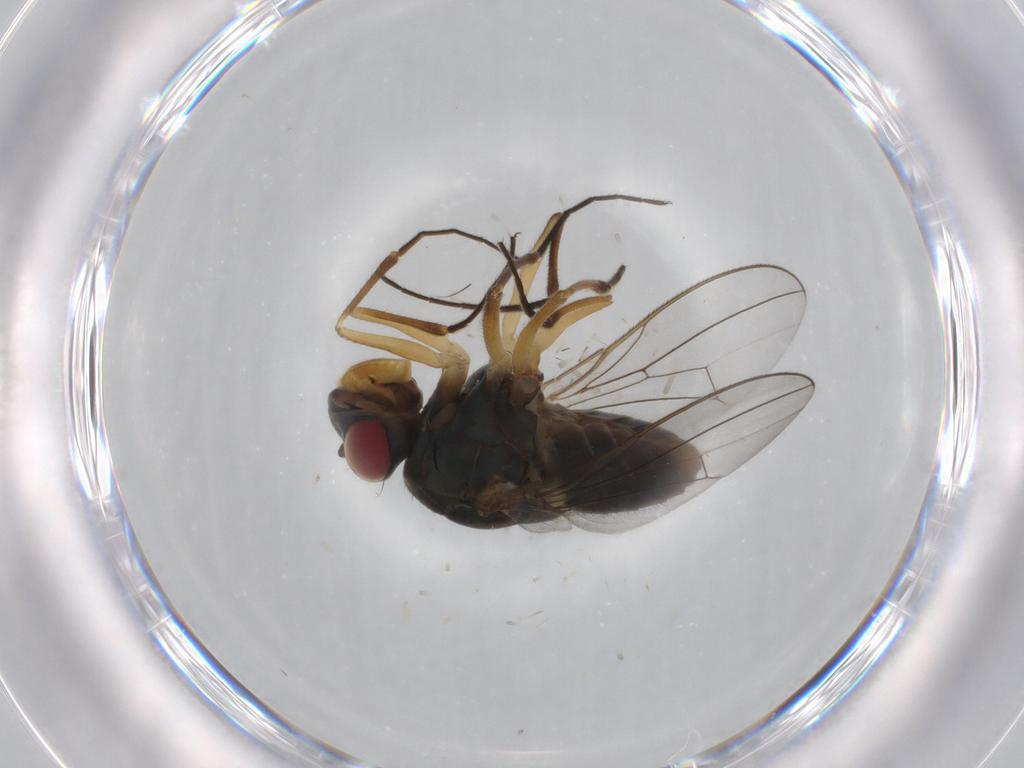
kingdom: Animalia
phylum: Arthropoda
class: Insecta
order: Diptera
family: Ephydridae
